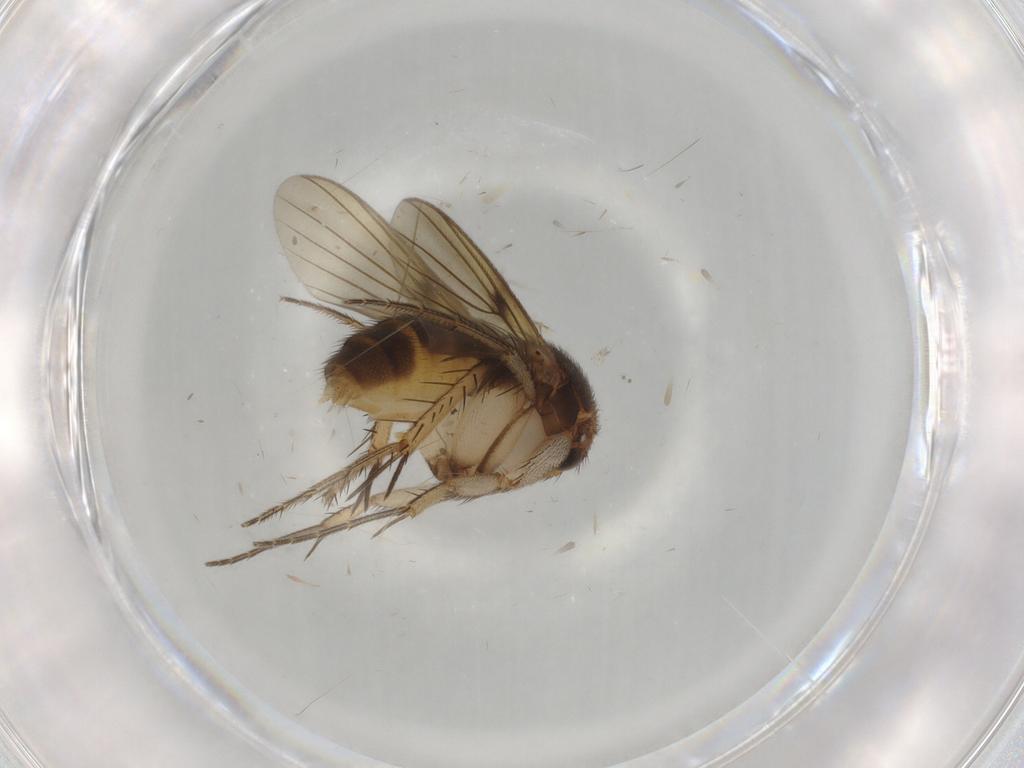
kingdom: Animalia
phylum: Arthropoda
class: Insecta
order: Diptera
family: Mycetophilidae
